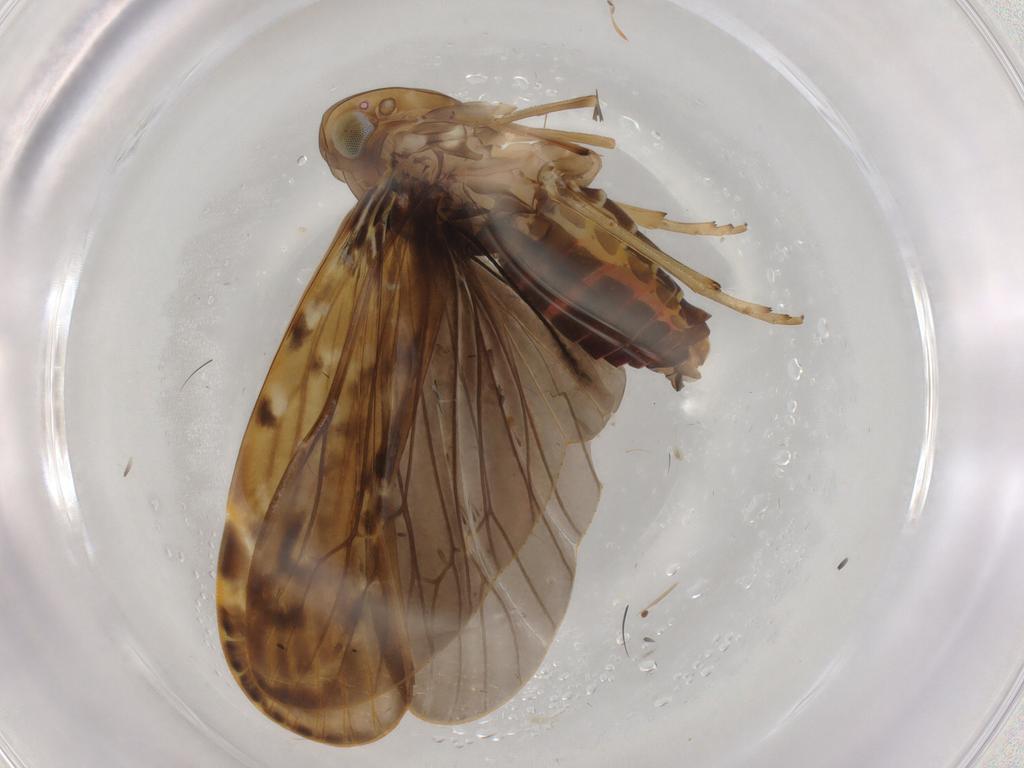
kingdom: Animalia
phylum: Arthropoda
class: Insecta
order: Hemiptera
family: Achilidae
